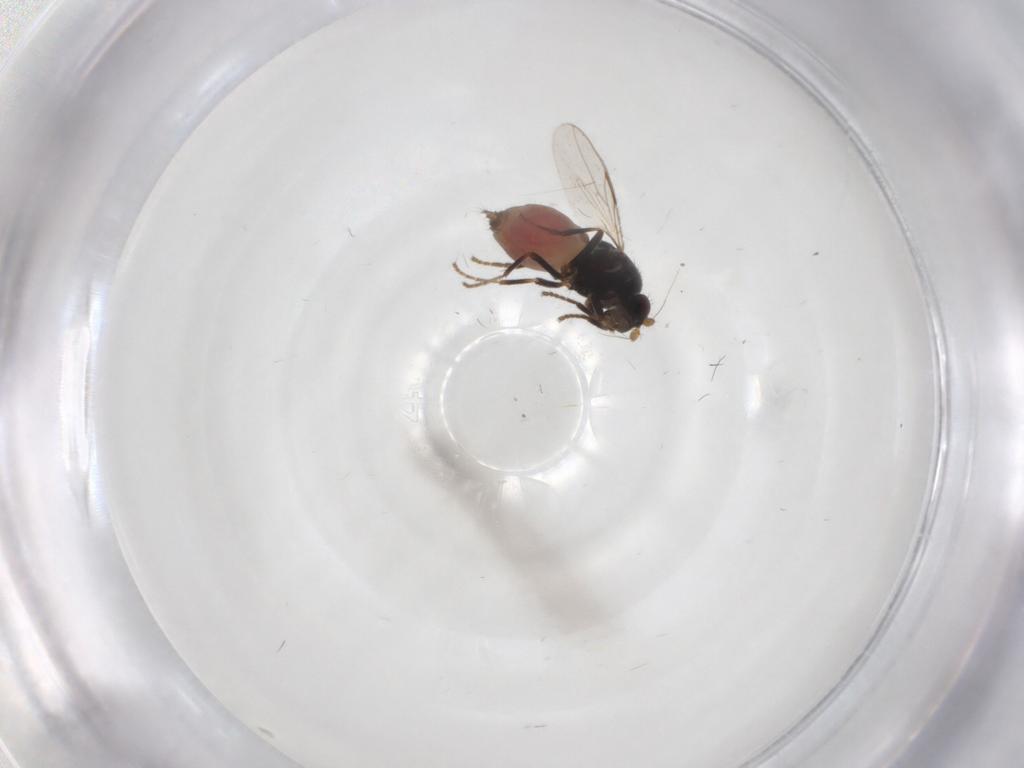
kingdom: Animalia
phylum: Arthropoda
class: Insecta
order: Diptera
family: Sphaeroceridae
